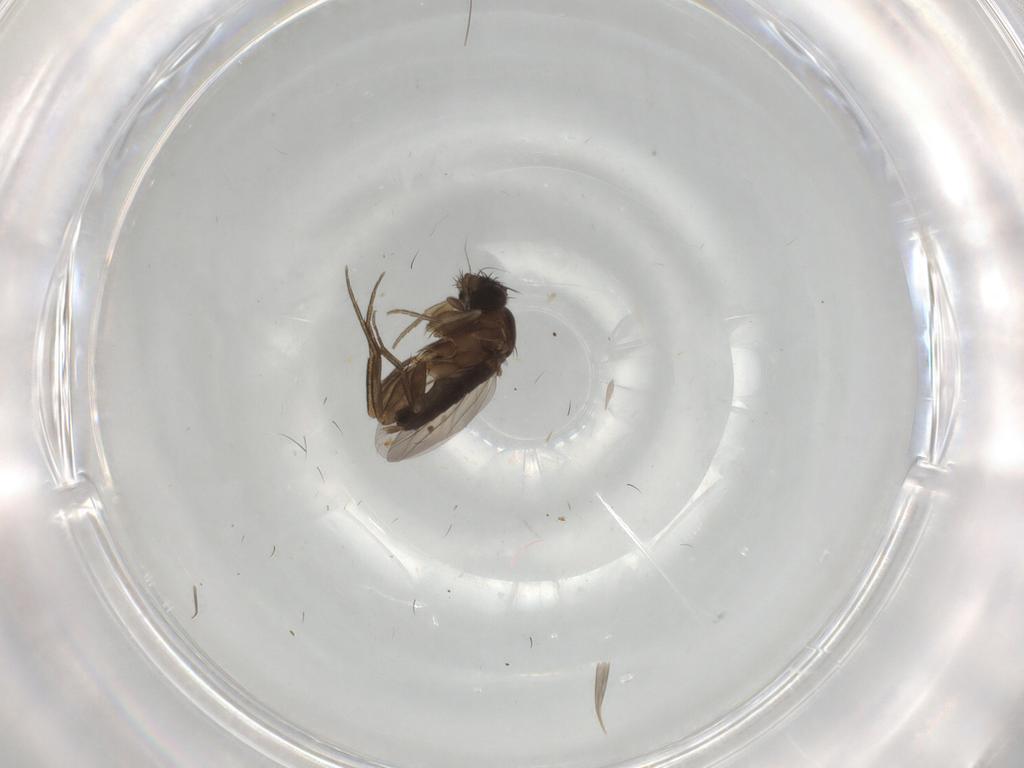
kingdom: Animalia
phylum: Arthropoda
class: Insecta
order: Diptera
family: Phoridae
